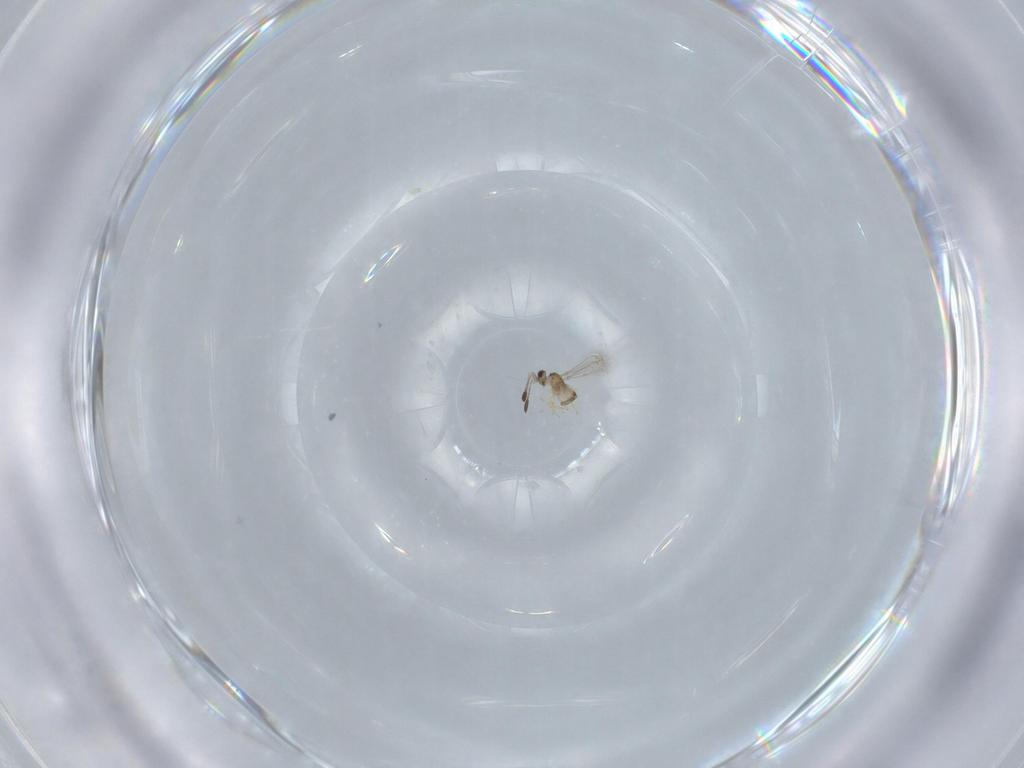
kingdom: Animalia
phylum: Arthropoda
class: Insecta
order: Hymenoptera
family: Mymaridae
